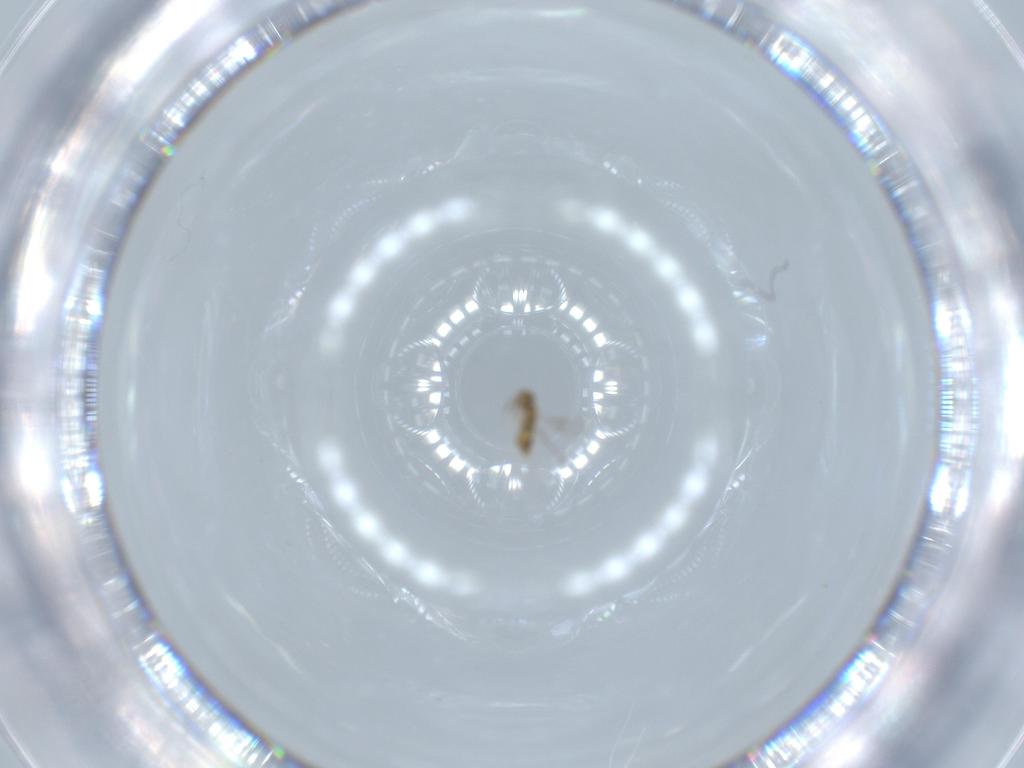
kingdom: Animalia
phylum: Arthropoda
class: Insecta
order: Hymenoptera
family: Aphelinidae
